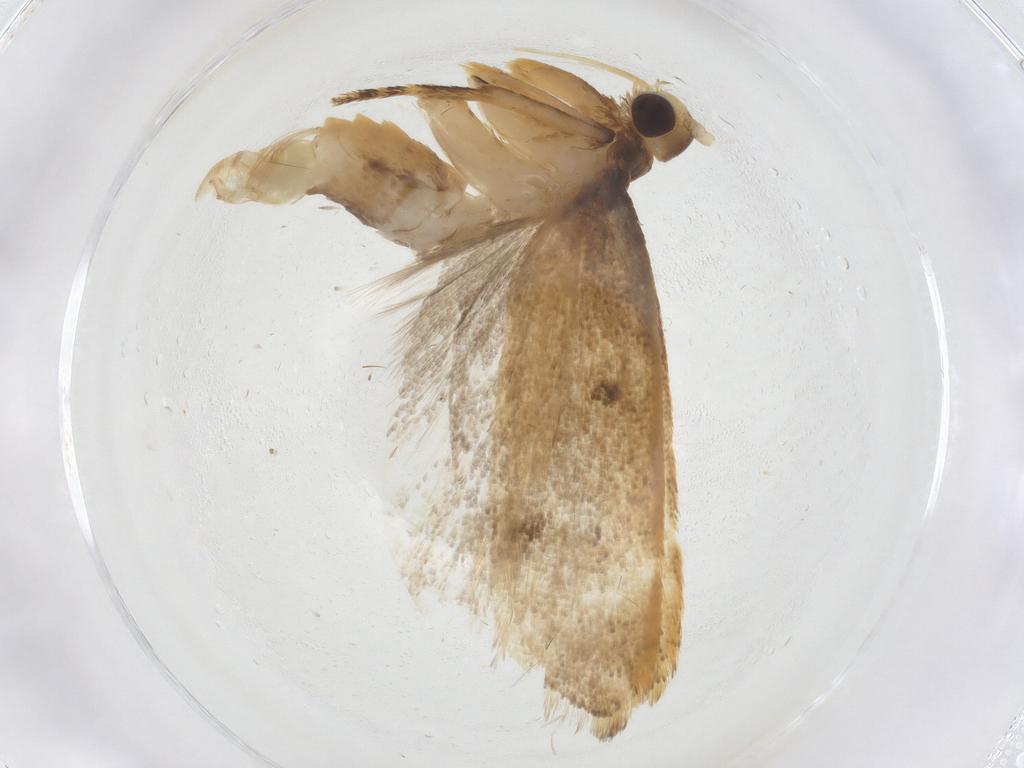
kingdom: Animalia
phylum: Arthropoda
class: Insecta
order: Lepidoptera
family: Lecithoceridae
